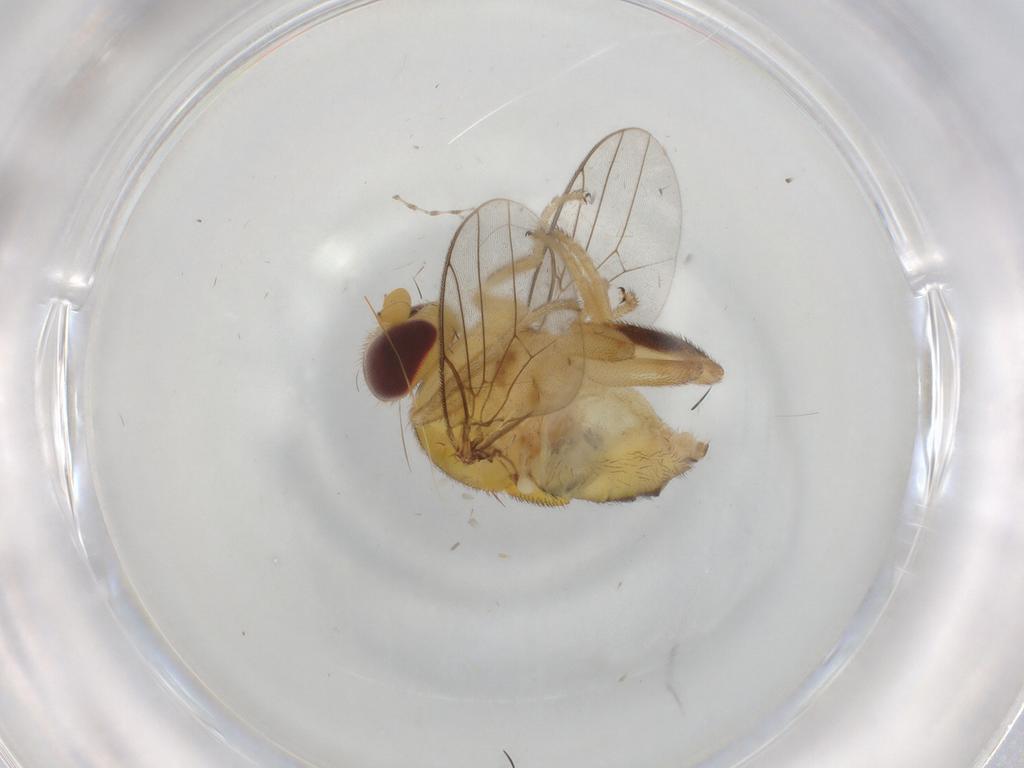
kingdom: Animalia
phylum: Arthropoda
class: Insecta
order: Diptera
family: Chloropidae
